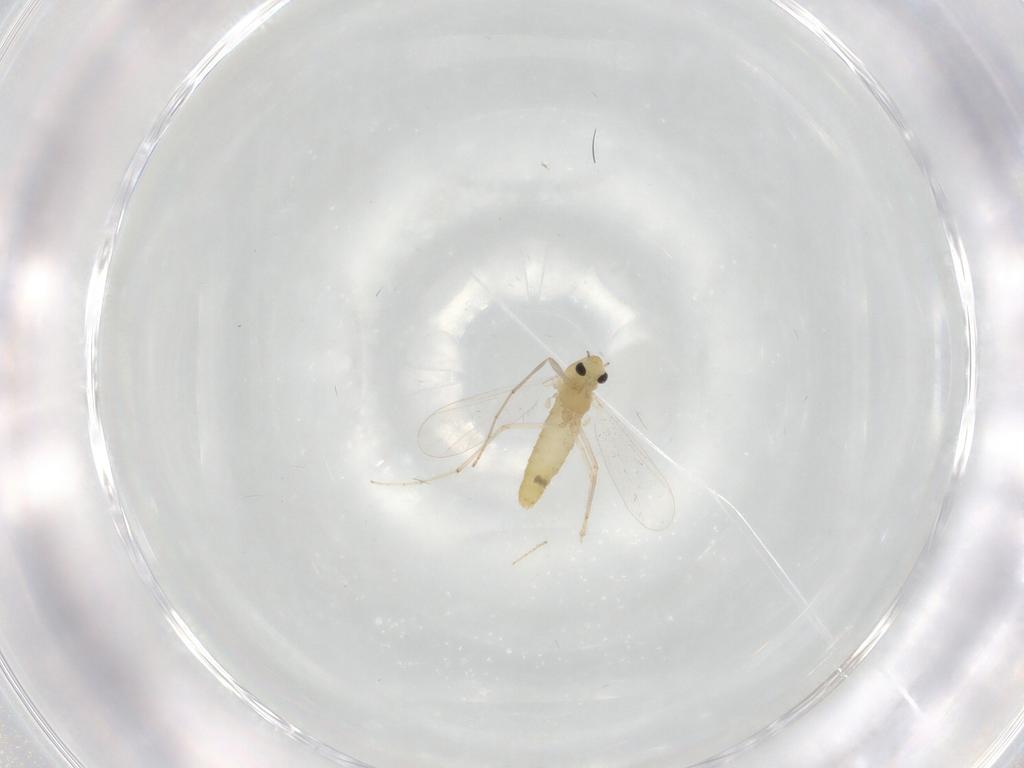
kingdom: Animalia
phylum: Arthropoda
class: Insecta
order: Diptera
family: Chironomidae
